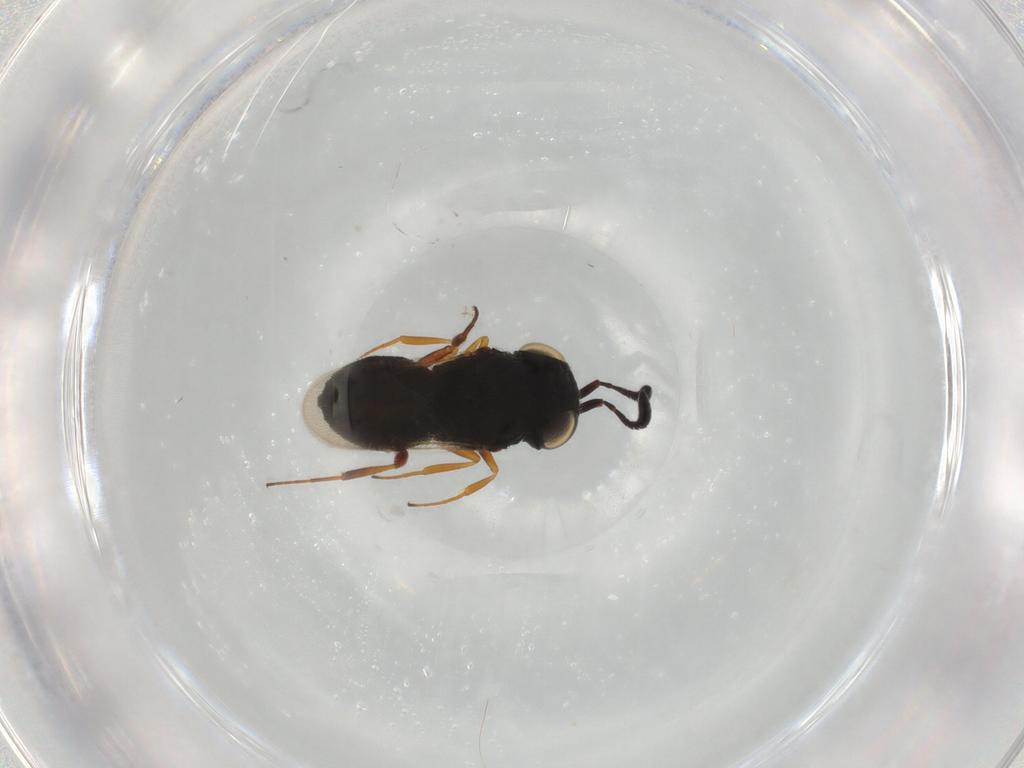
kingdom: Animalia
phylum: Arthropoda
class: Insecta
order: Hymenoptera
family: Scelionidae
